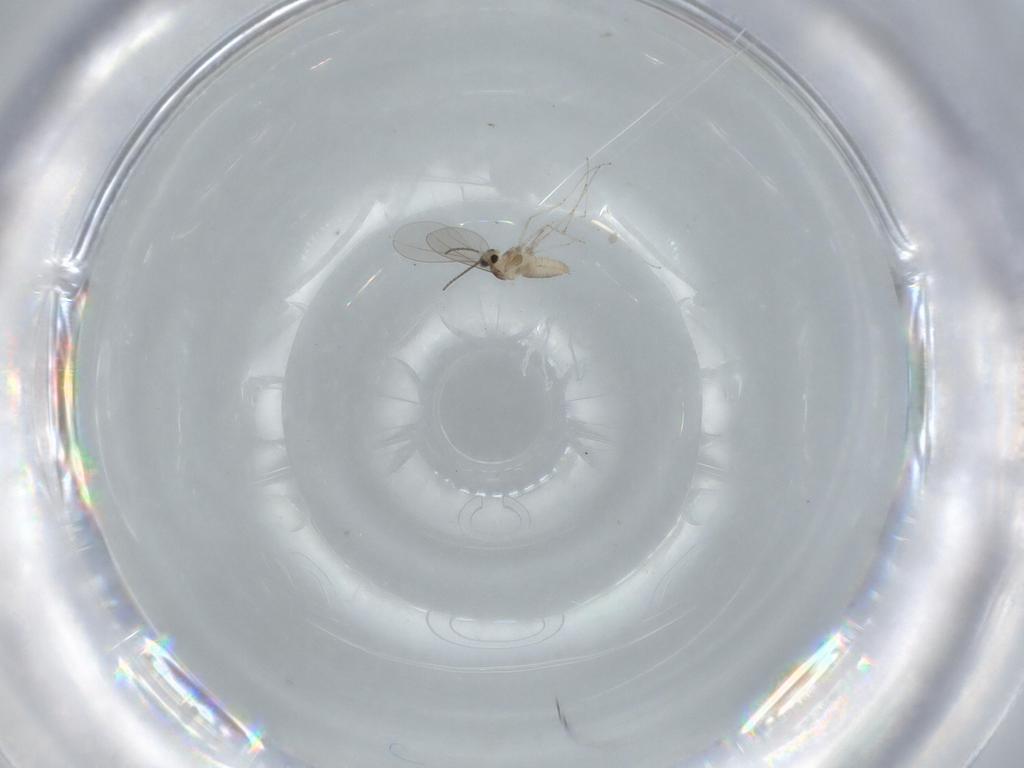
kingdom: Animalia
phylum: Arthropoda
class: Insecta
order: Diptera
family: Cecidomyiidae
